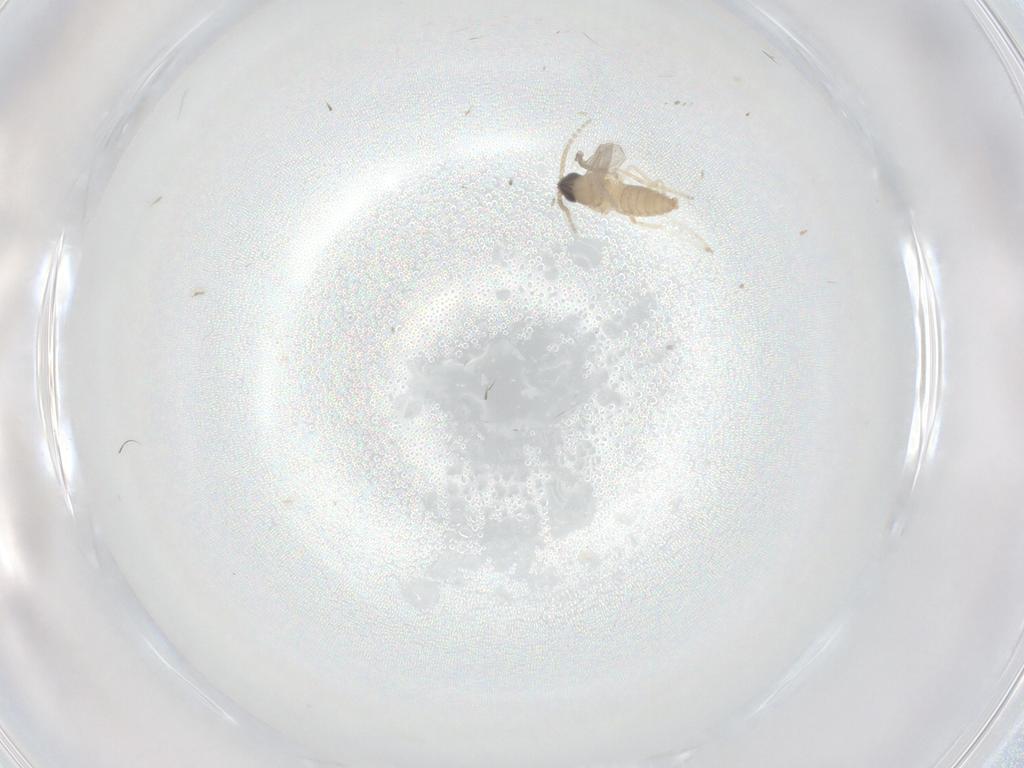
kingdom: Animalia
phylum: Arthropoda
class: Insecta
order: Diptera
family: Cecidomyiidae
